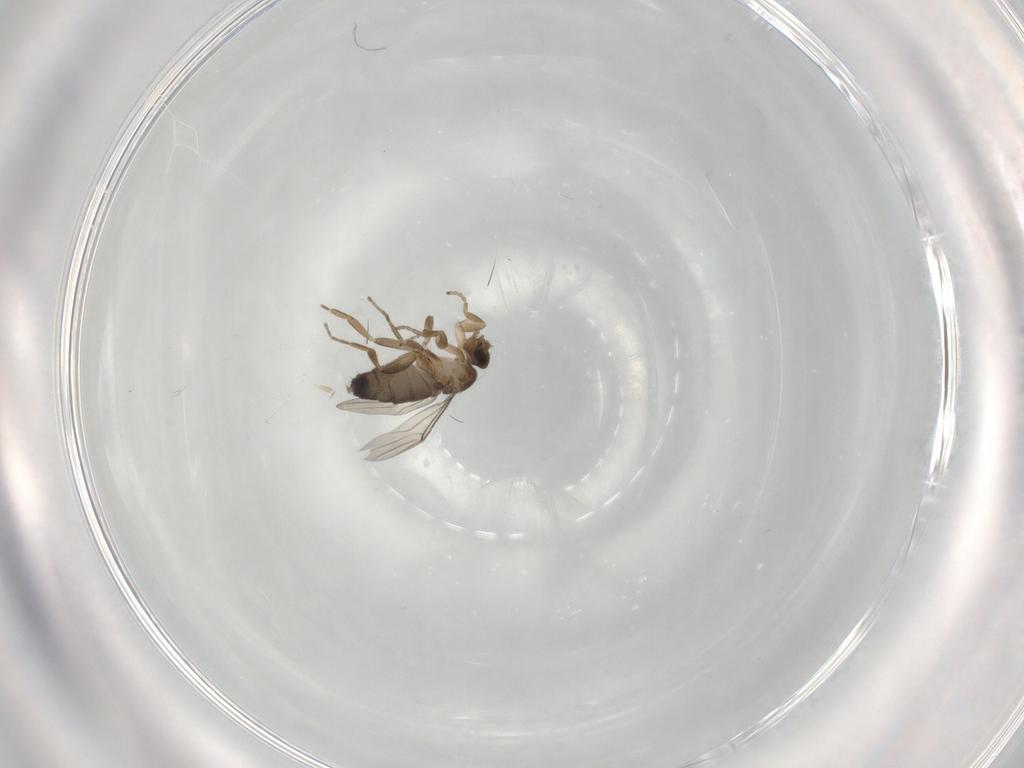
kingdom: Animalia
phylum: Arthropoda
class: Insecta
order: Diptera
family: Phoridae
